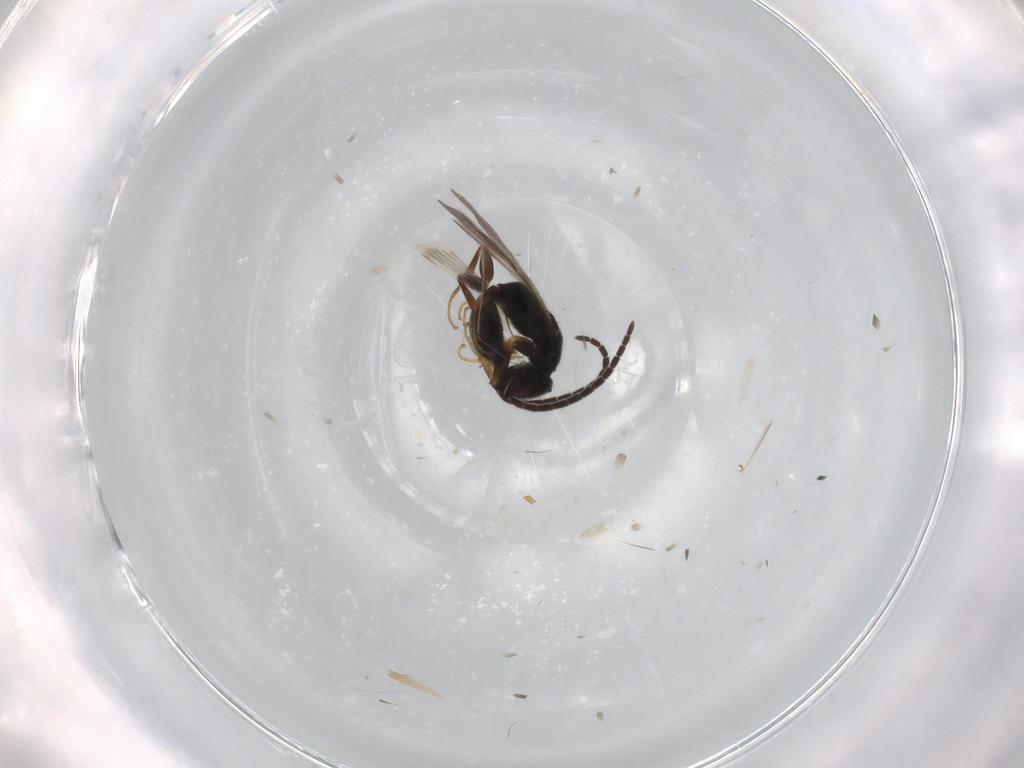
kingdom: Animalia
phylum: Arthropoda
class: Insecta
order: Hymenoptera
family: Bethylidae
